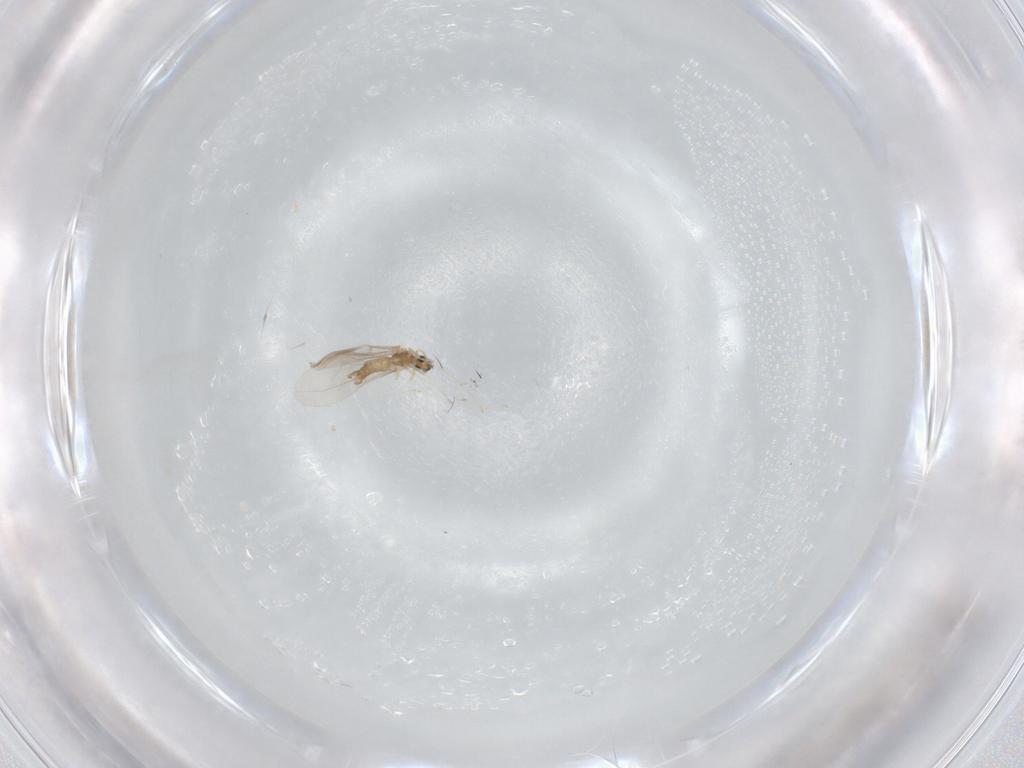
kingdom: Animalia
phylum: Arthropoda
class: Insecta
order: Diptera
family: Cecidomyiidae
